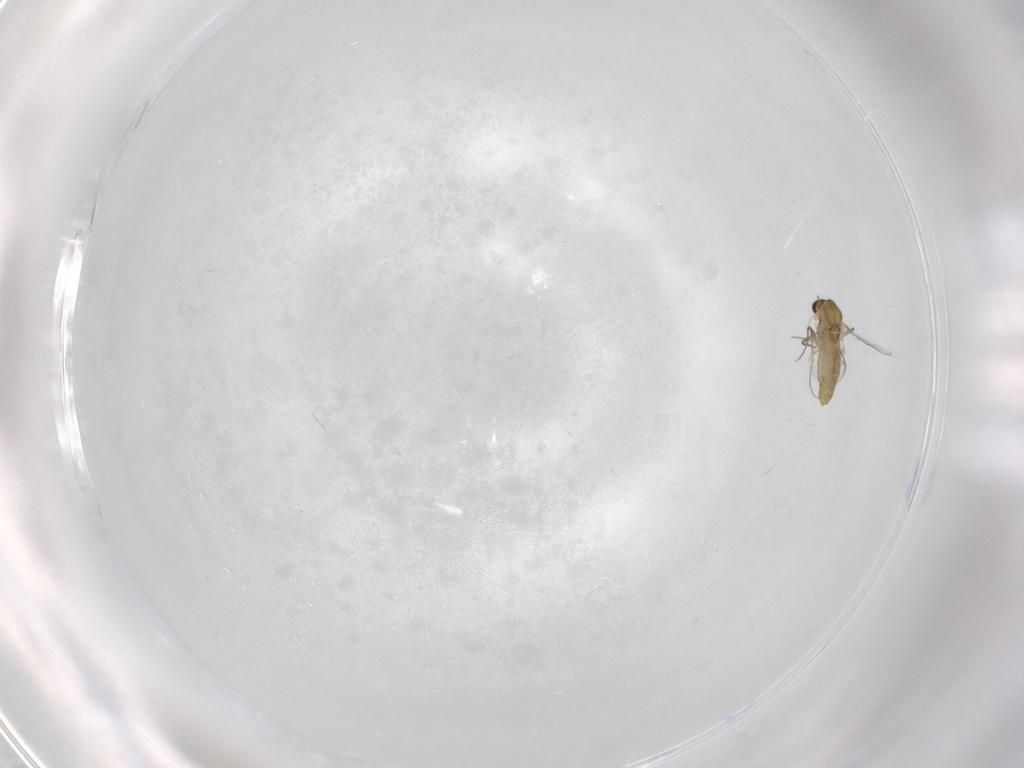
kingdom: Animalia
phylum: Arthropoda
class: Insecta
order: Diptera
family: Chironomidae
